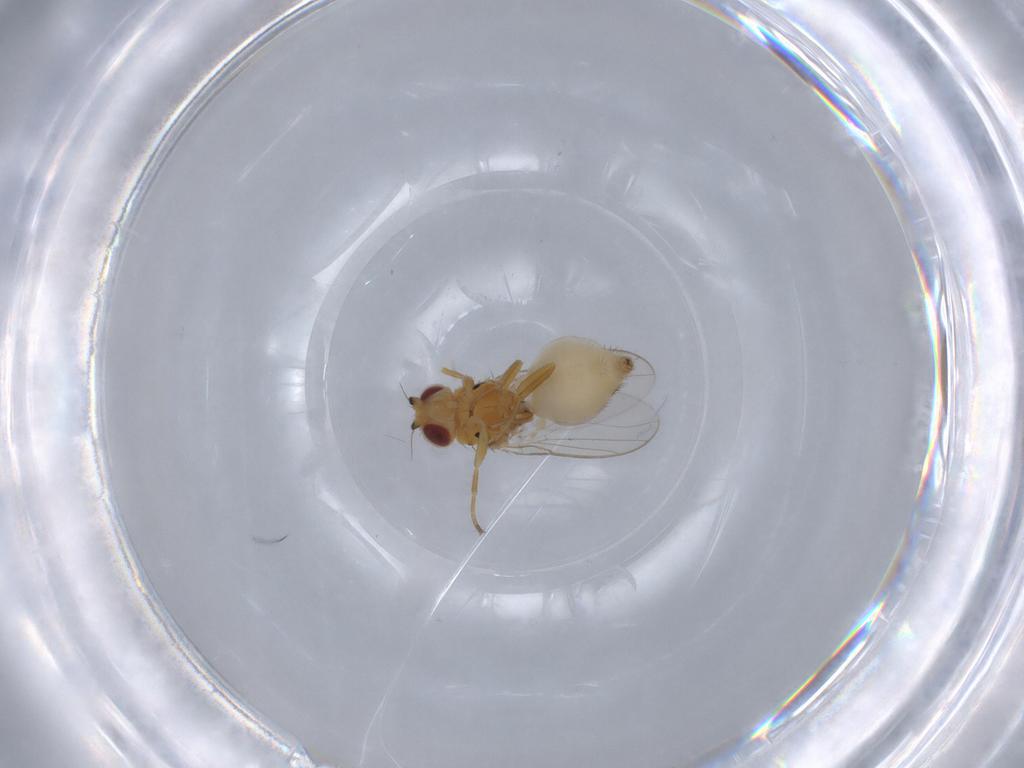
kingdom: Animalia
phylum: Arthropoda
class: Insecta
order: Diptera
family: Chloropidae
